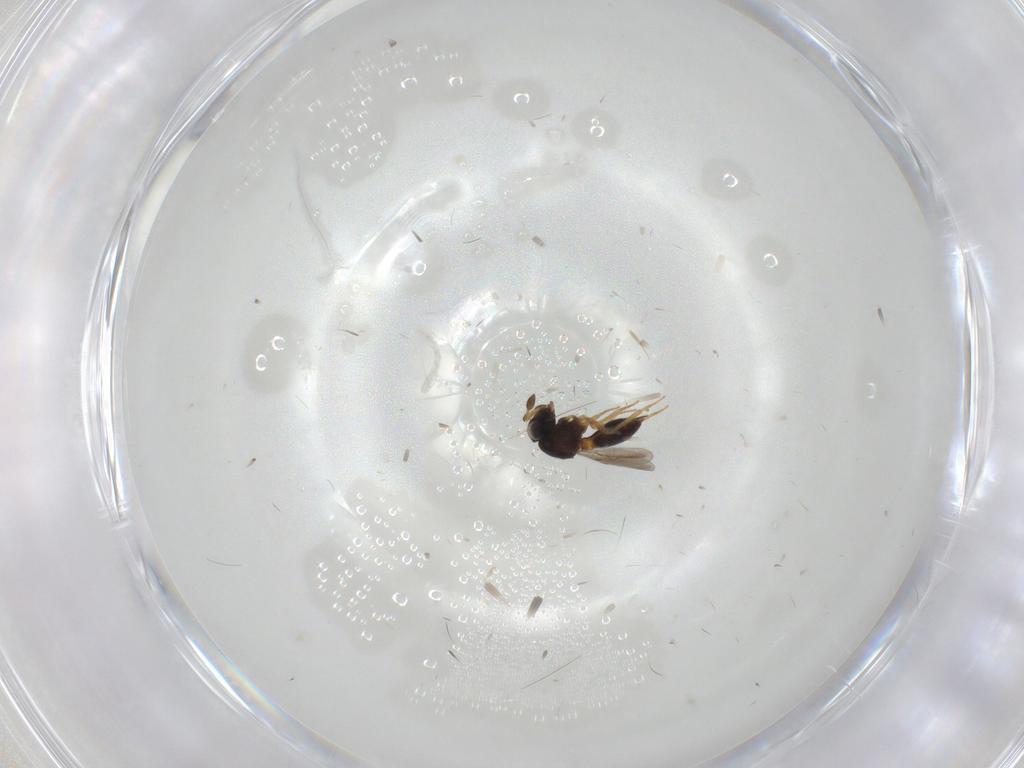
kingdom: Animalia
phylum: Arthropoda
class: Insecta
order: Hymenoptera
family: Scelionidae
